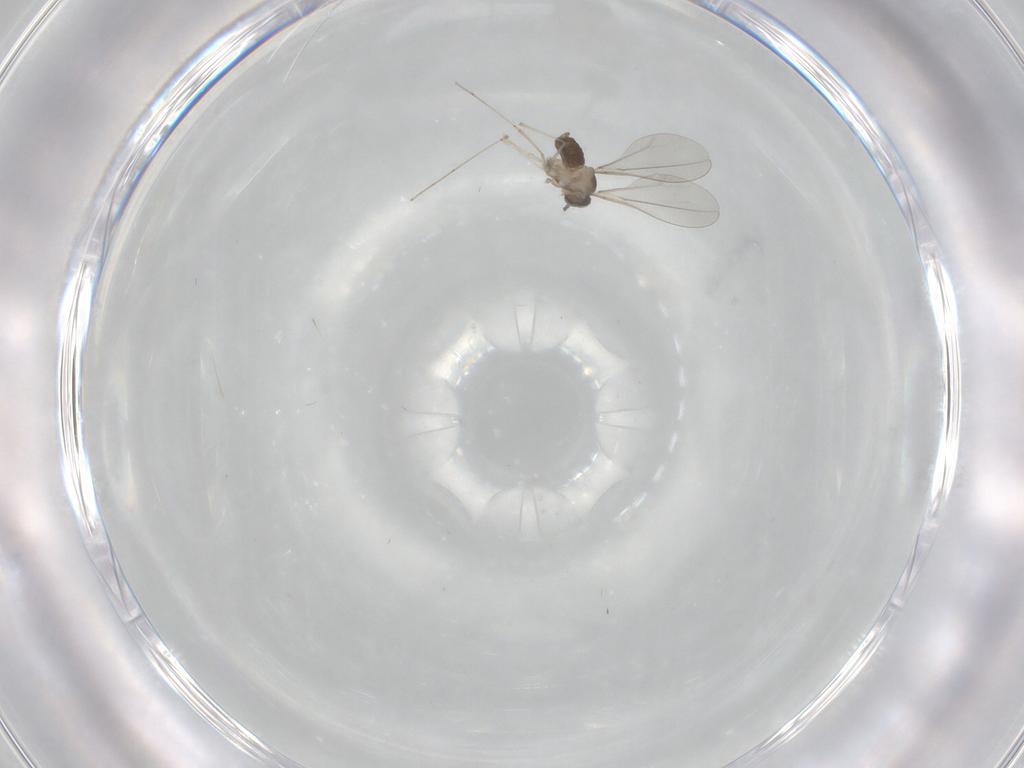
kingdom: Animalia
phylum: Arthropoda
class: Insecta
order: Diptera
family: Cecidomyiidae
